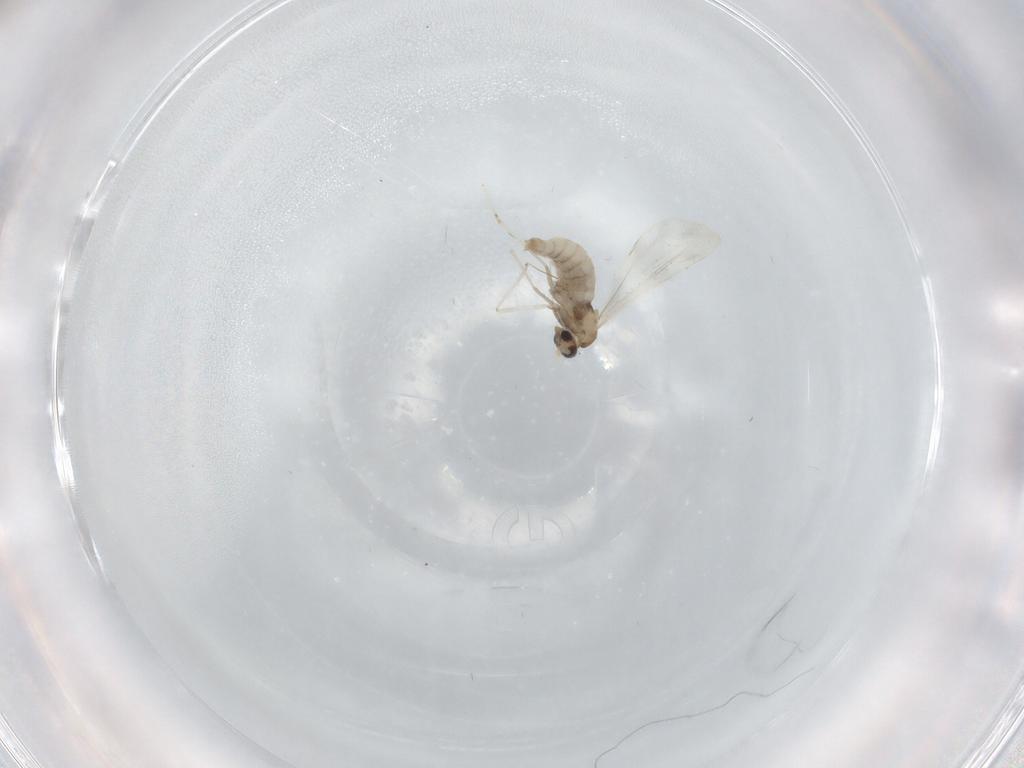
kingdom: Animalia
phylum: Arthropoda
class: Insecta
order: Diptera
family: Cecidomyiidae
